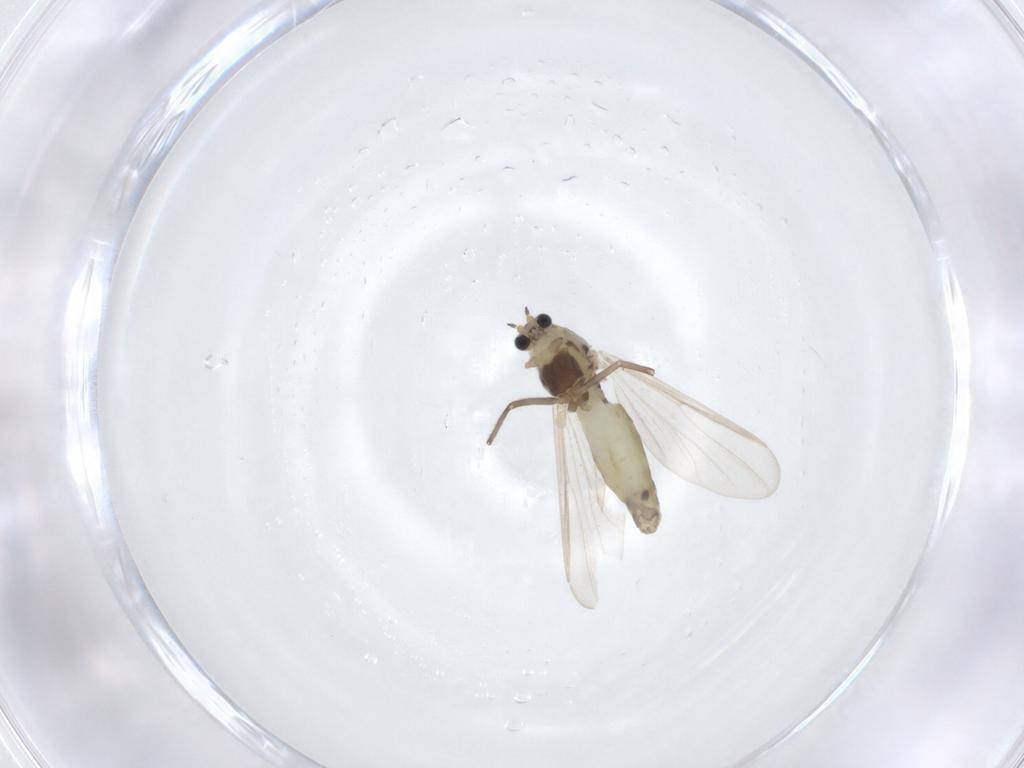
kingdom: Animalia
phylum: Arthropoda
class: Insecta
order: Diptera
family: Chironomidae
